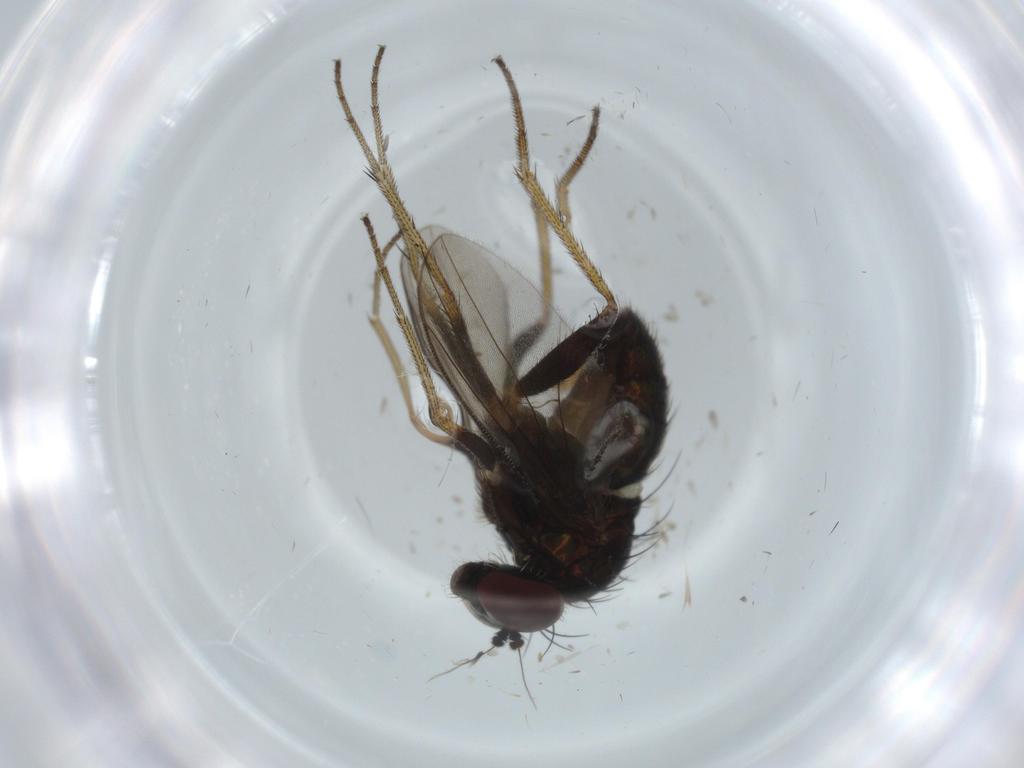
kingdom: Animalia
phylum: Arthropoda
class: Insecta
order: Diptera
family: Dolichopodidae
